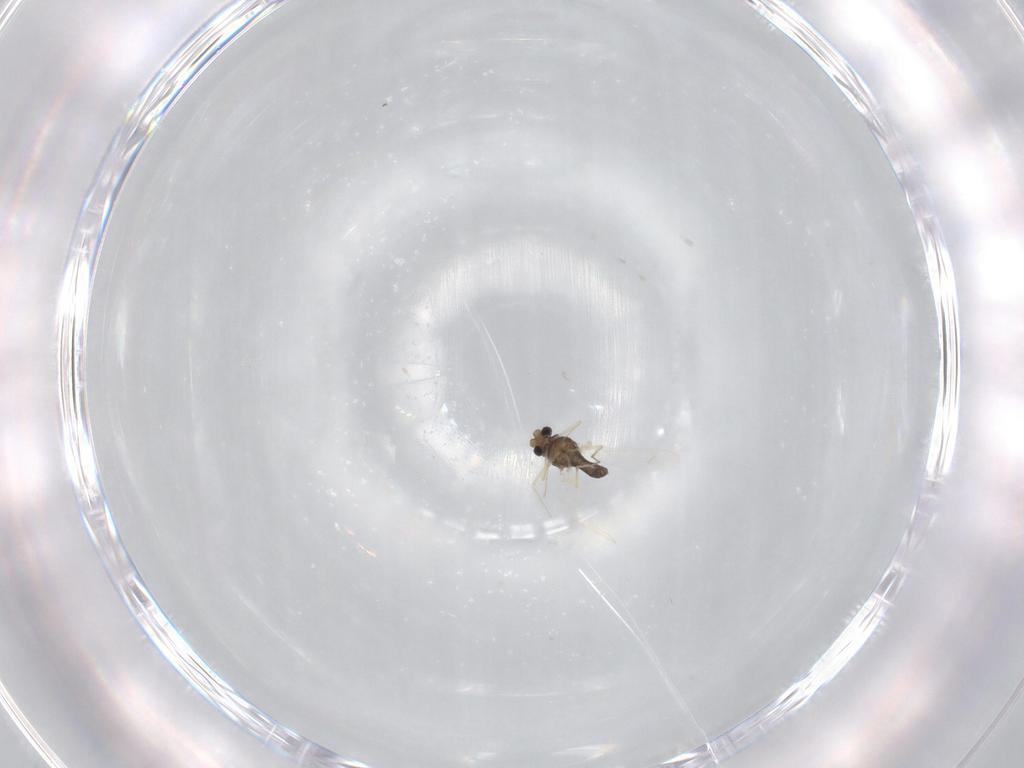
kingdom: Animalia
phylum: Arthropoda
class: Insecta
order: Diptera
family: Chironomidae
